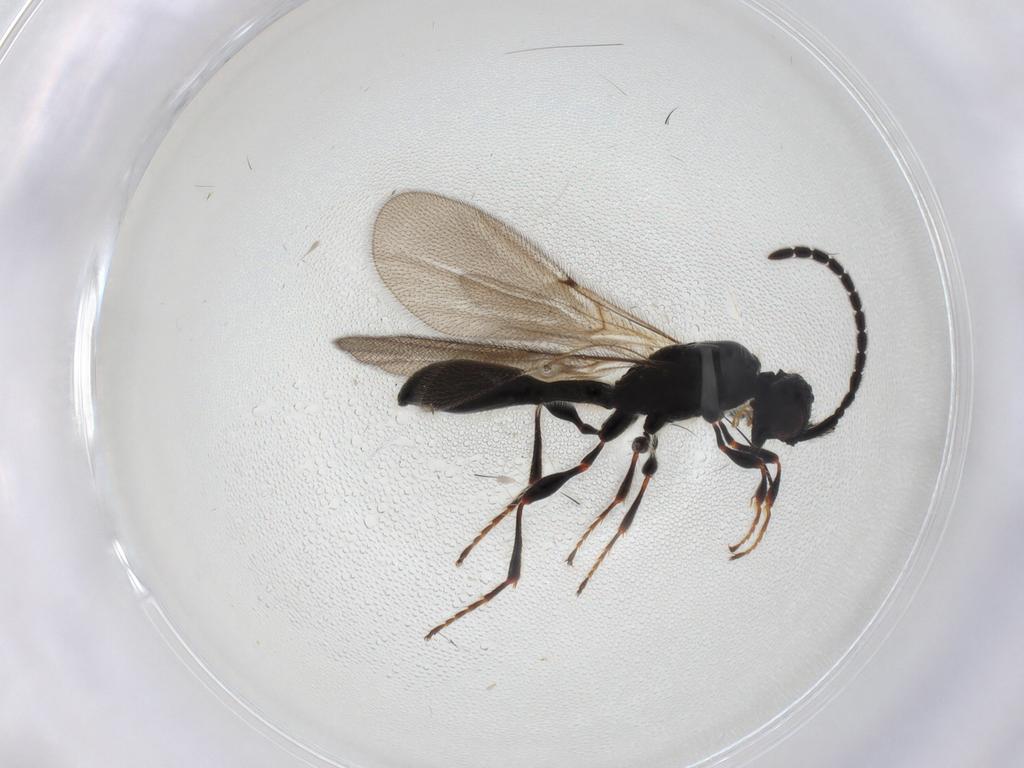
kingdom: Animalia
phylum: Arthropoda
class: Insecta
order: Hymenoptera
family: Diapriidae
